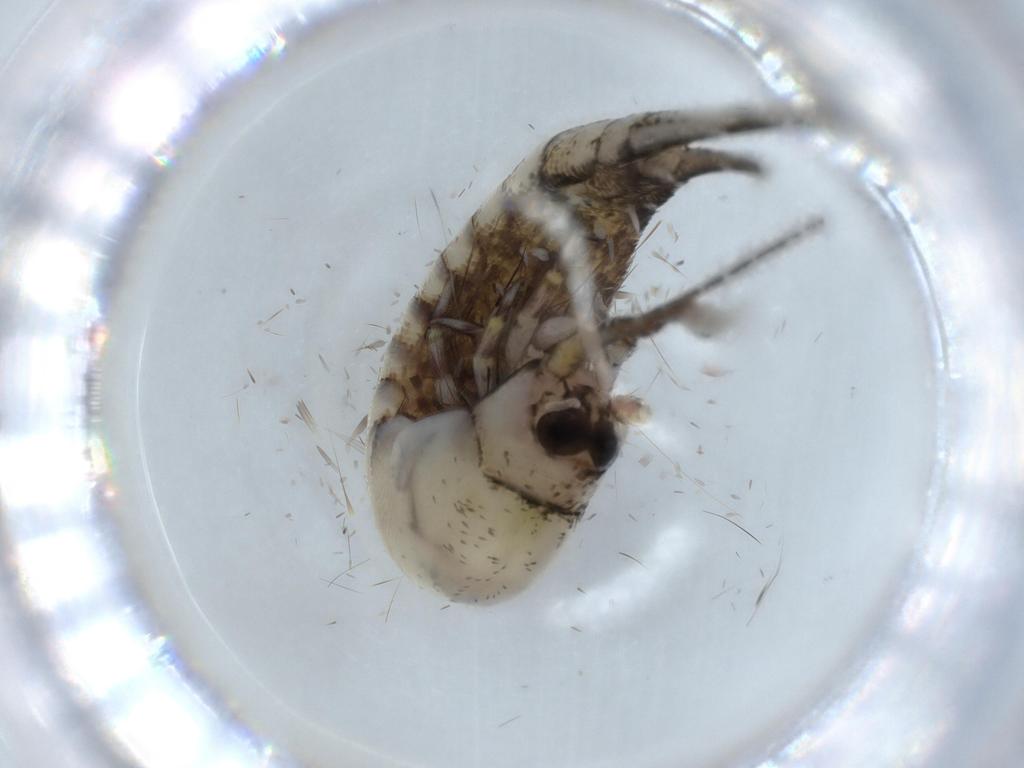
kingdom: Animalia
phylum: Arthropoda
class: Insecta
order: Archaeognatha
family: Machilidae
